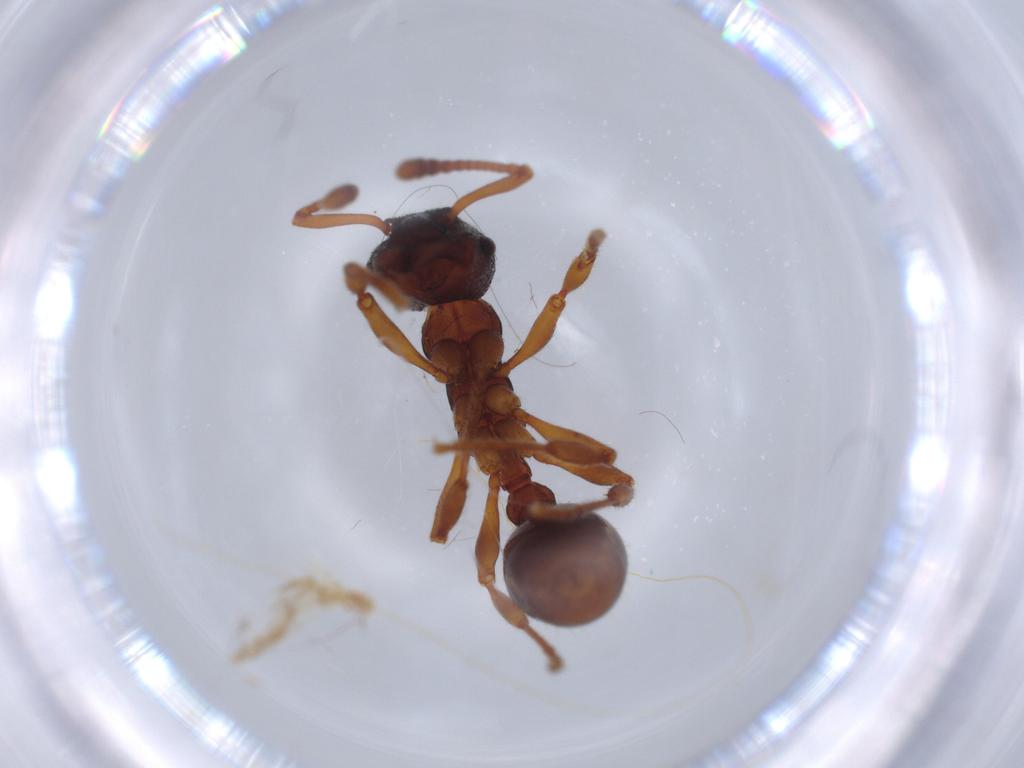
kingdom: Animalia
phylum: Arthropoda
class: Insecta
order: Hymenoptera
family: Formicidae
